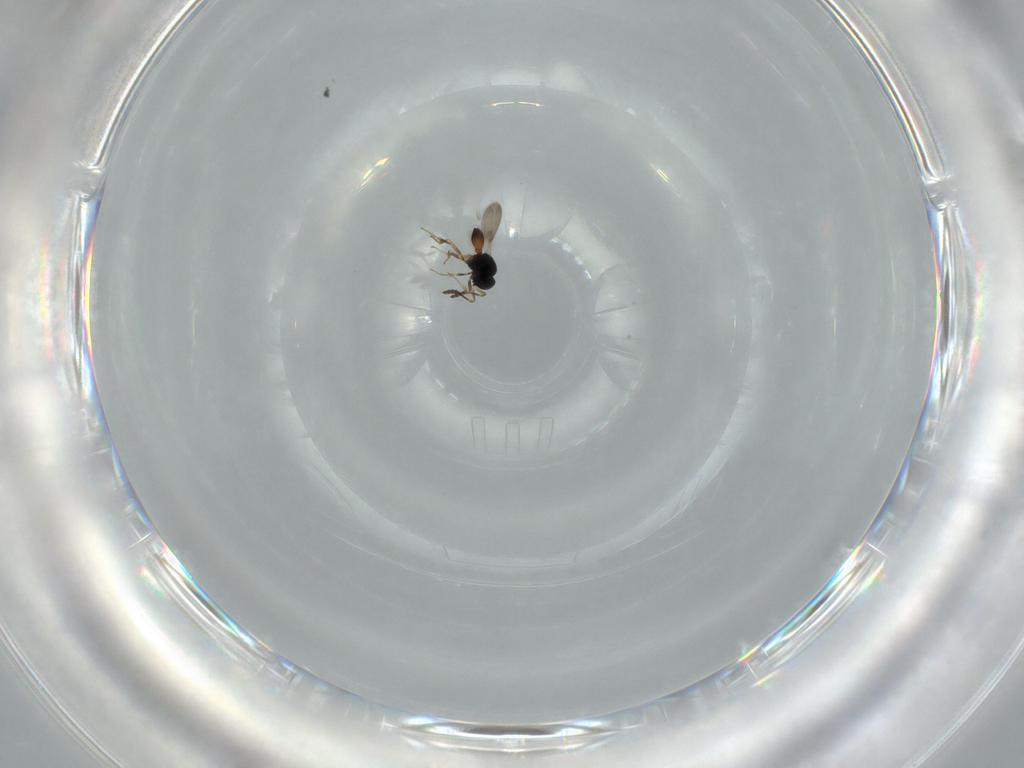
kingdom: Animalia
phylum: Arthropoda
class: Insecta
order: Hymenoptera
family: Scelionidae
